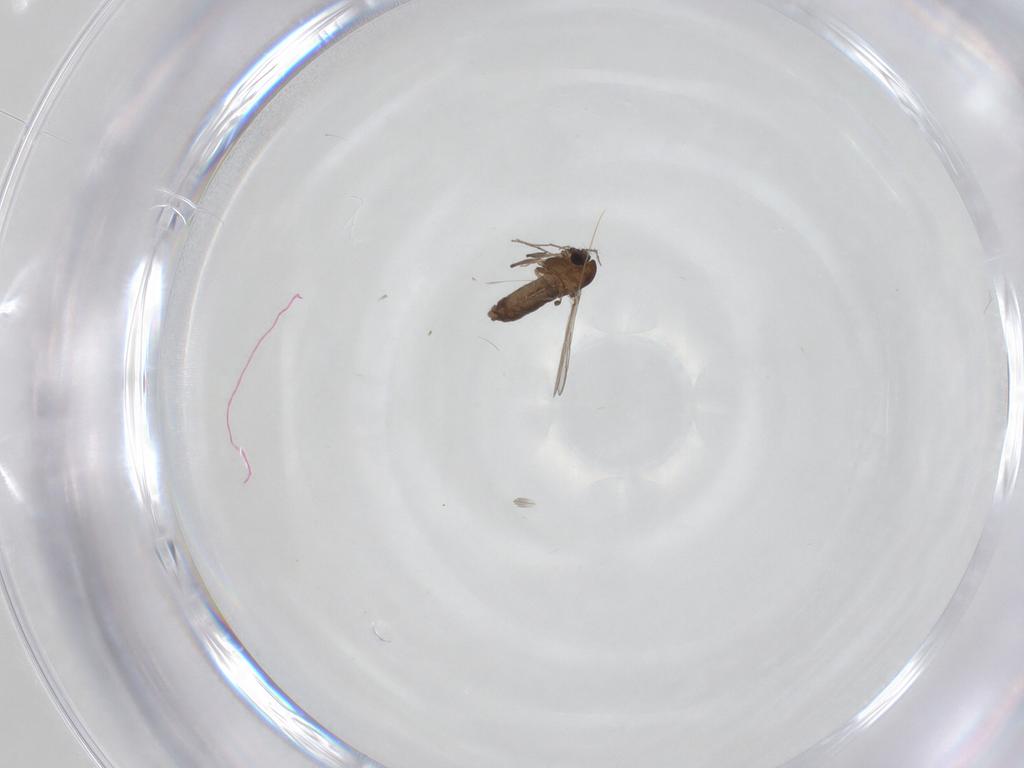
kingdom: Animalia
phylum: Arthropoda
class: Insecta
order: Diptera
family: Chironomidae
